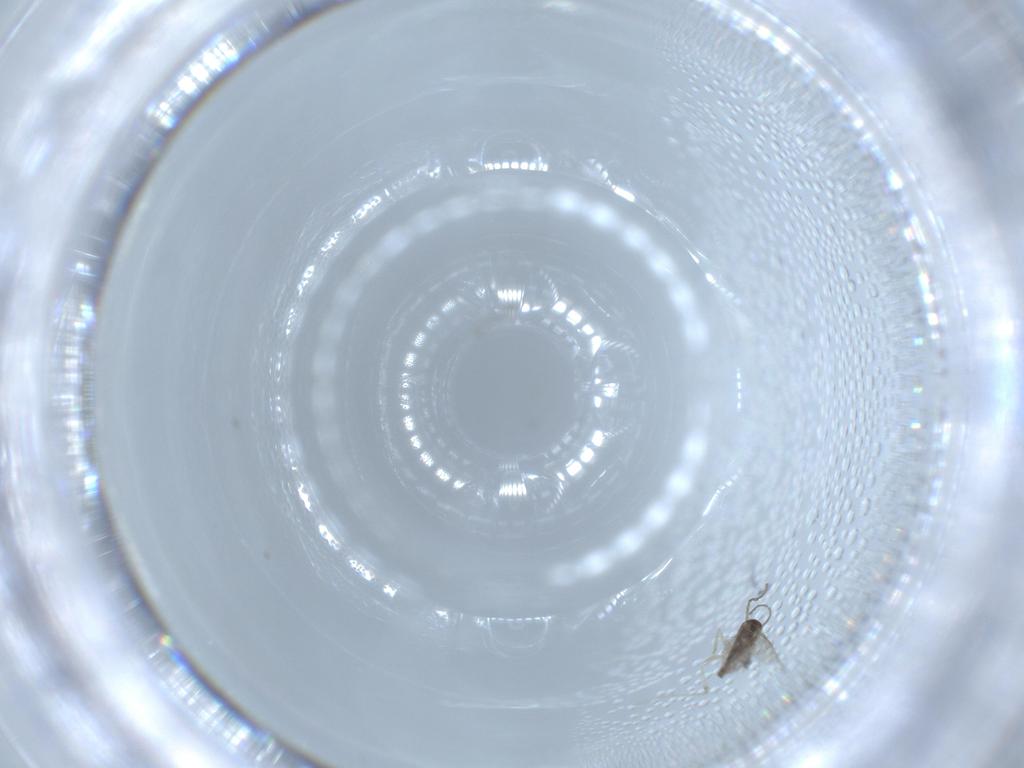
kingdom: Animalia
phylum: Arthropoda
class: Insecta
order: Diptera
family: Cecidomyiidae
